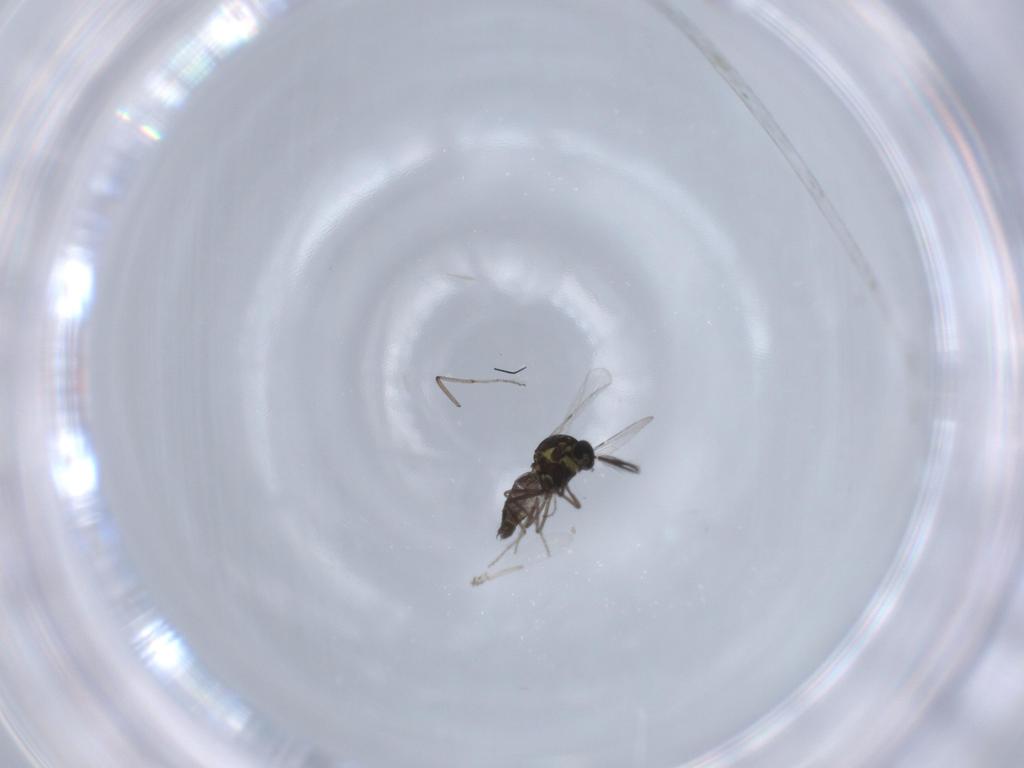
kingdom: Animalia
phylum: Arthropoda
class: Insecta
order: Diptera
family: Ceratopogonidae
